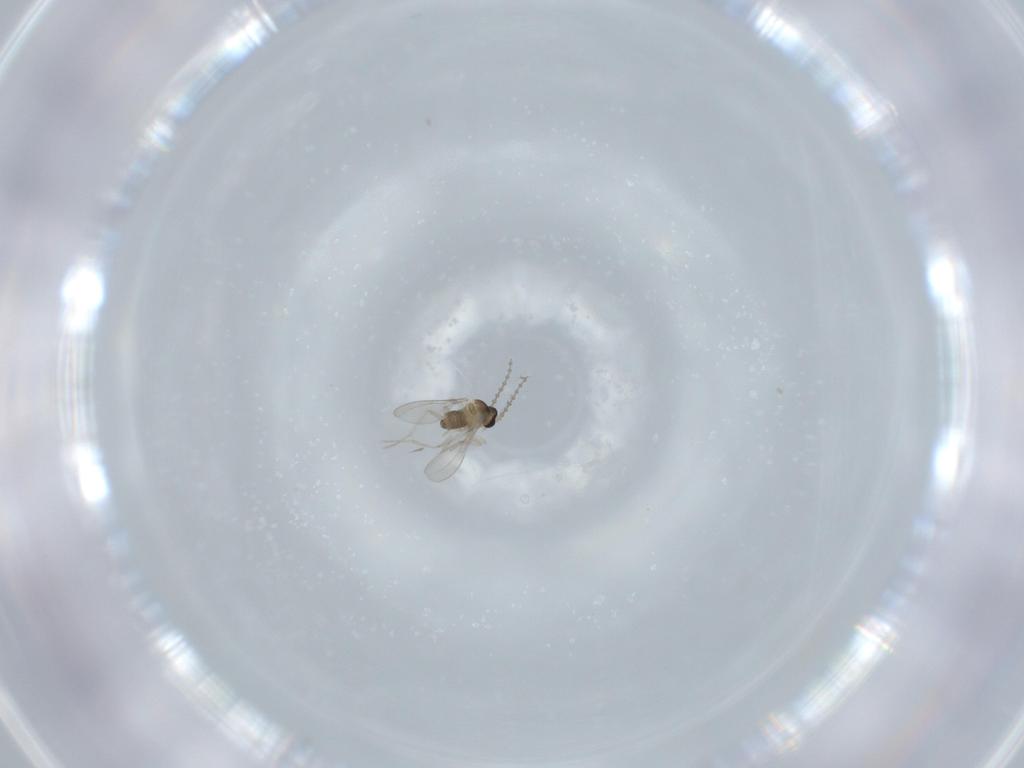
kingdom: Animalia
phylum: Arthropoda
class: Insecta
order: Diptera
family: Cecidomyiidae
